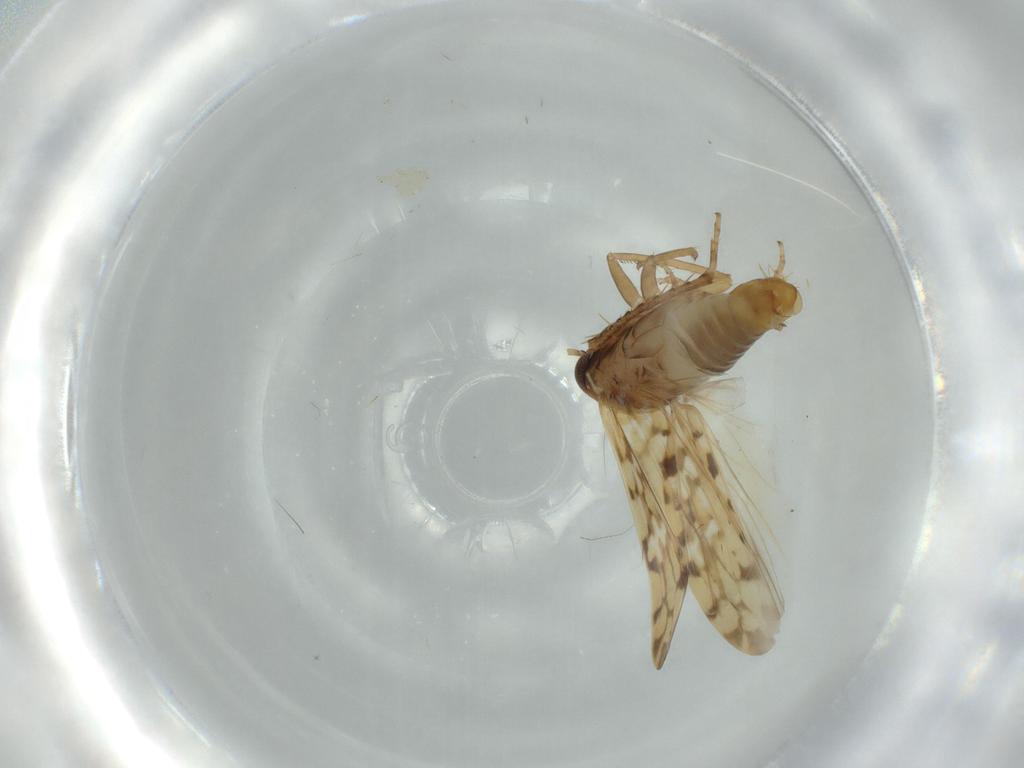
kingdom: Animalia
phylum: Arthropoda
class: Insecta
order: Hemiptera
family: Cicadellidae
